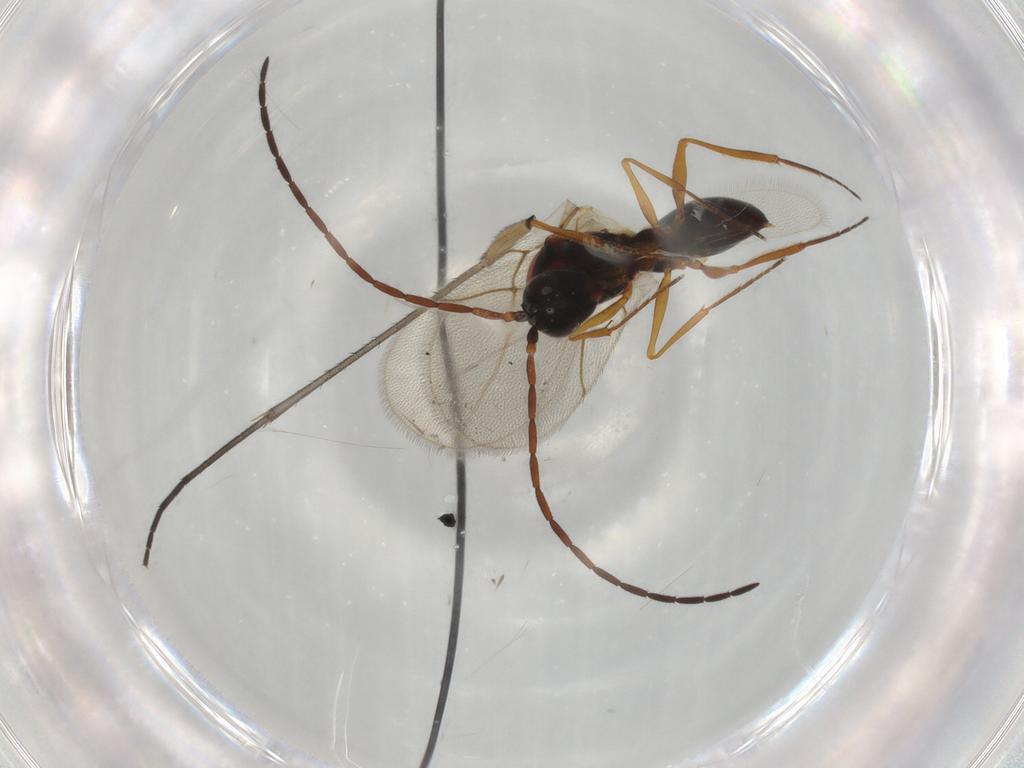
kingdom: Animalia
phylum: Arthropoda
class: Insecta
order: Hymenoptera
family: Figitidae
